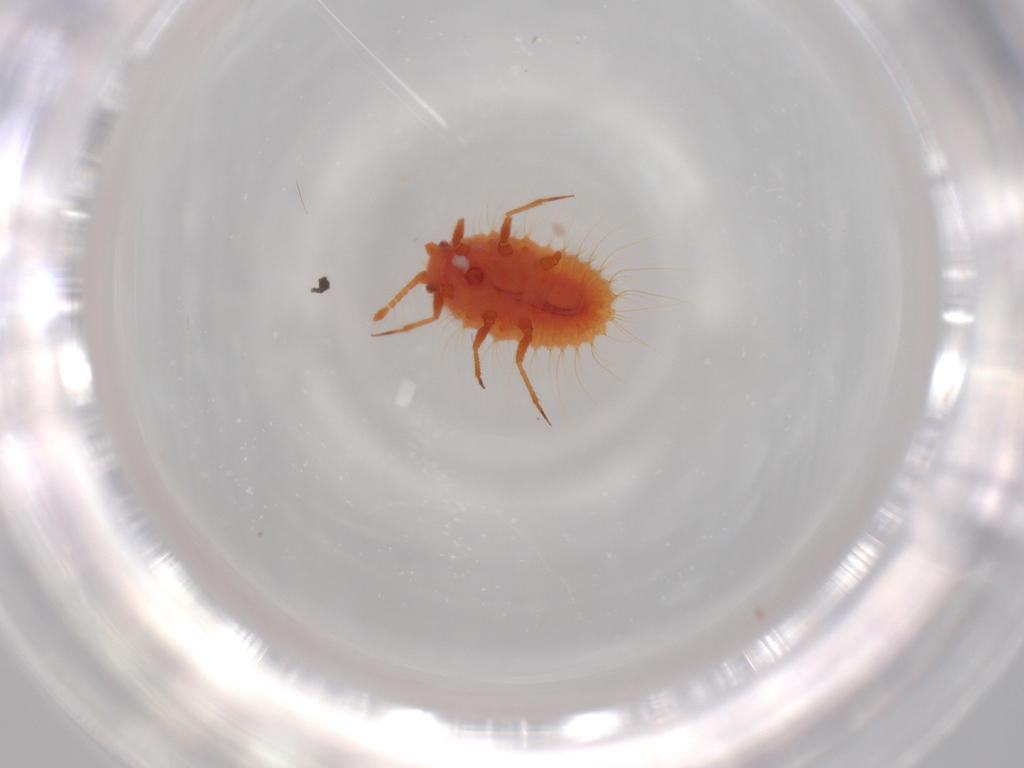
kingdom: Animalia
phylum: Arthropoda
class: Insecta
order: Hemiptera
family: Coccoidea_incertae_sedis
